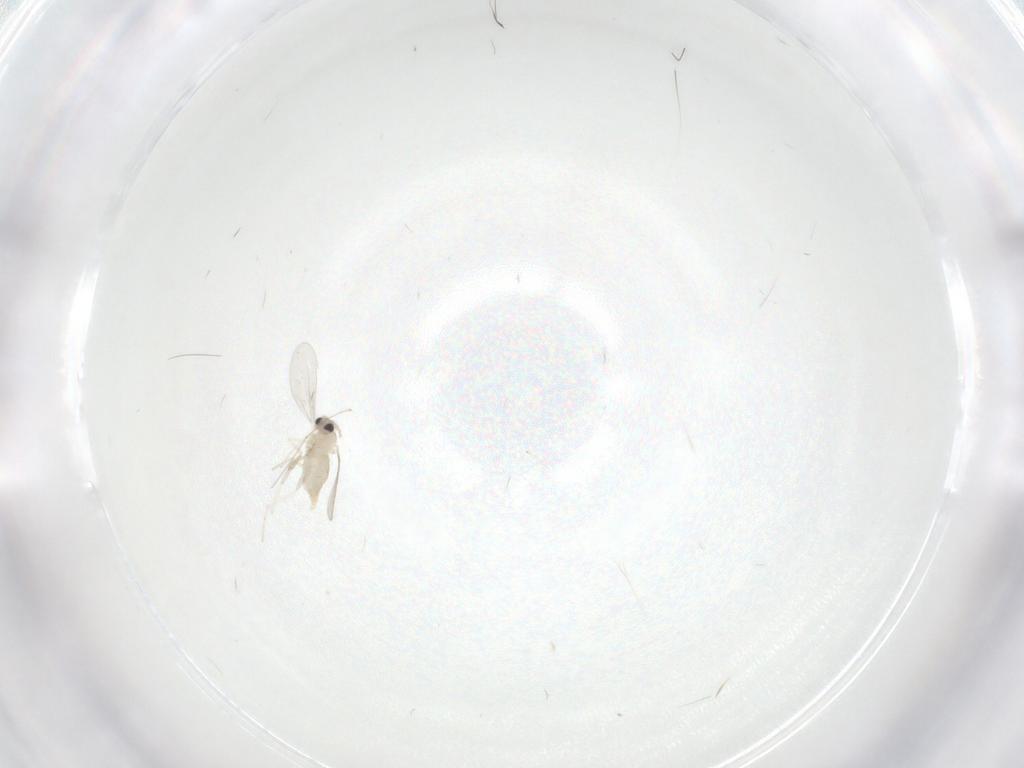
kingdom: Animalia
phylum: Arthropoda
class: Insecta
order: Diptera
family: Cecidomyiidae
